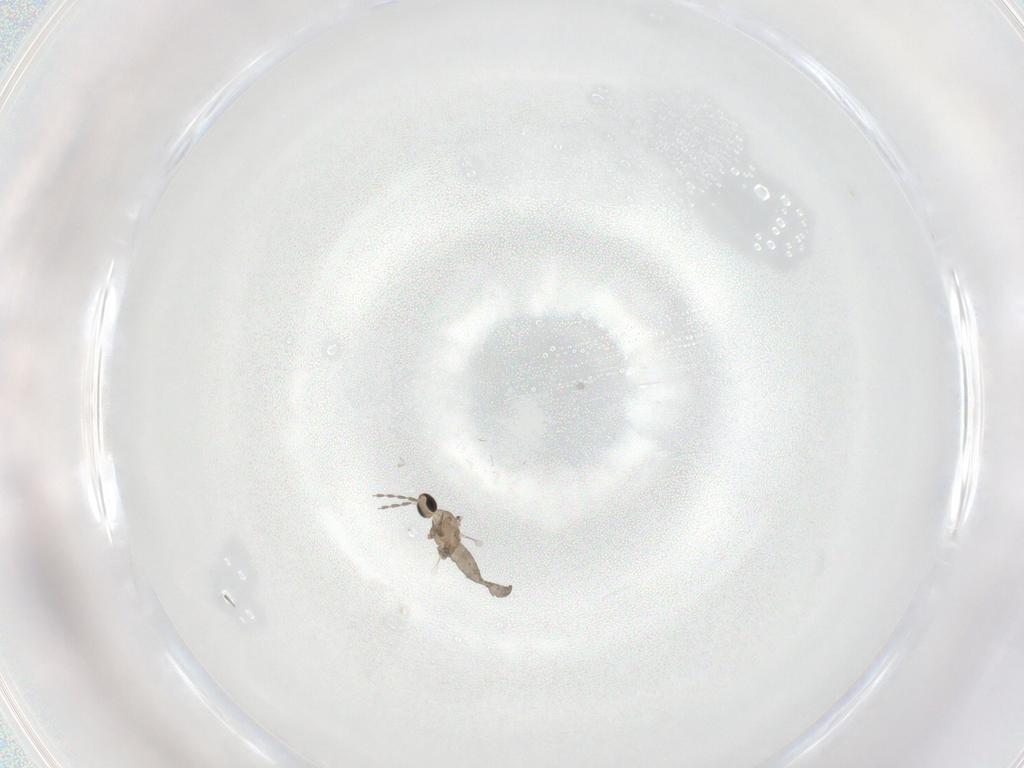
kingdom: Animalia
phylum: Arthropoda
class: Insecta
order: Diptera
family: Cecidomyiidae
